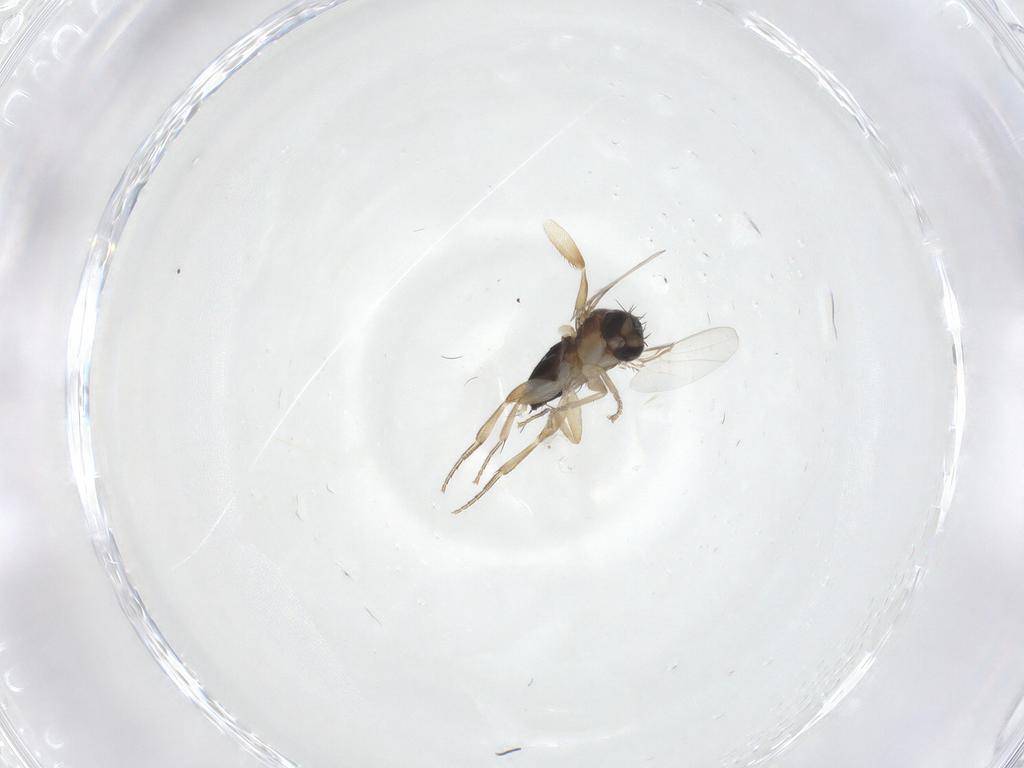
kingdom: Animalia
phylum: Arthropoda
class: Insecta
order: Diptera
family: Phoridae
